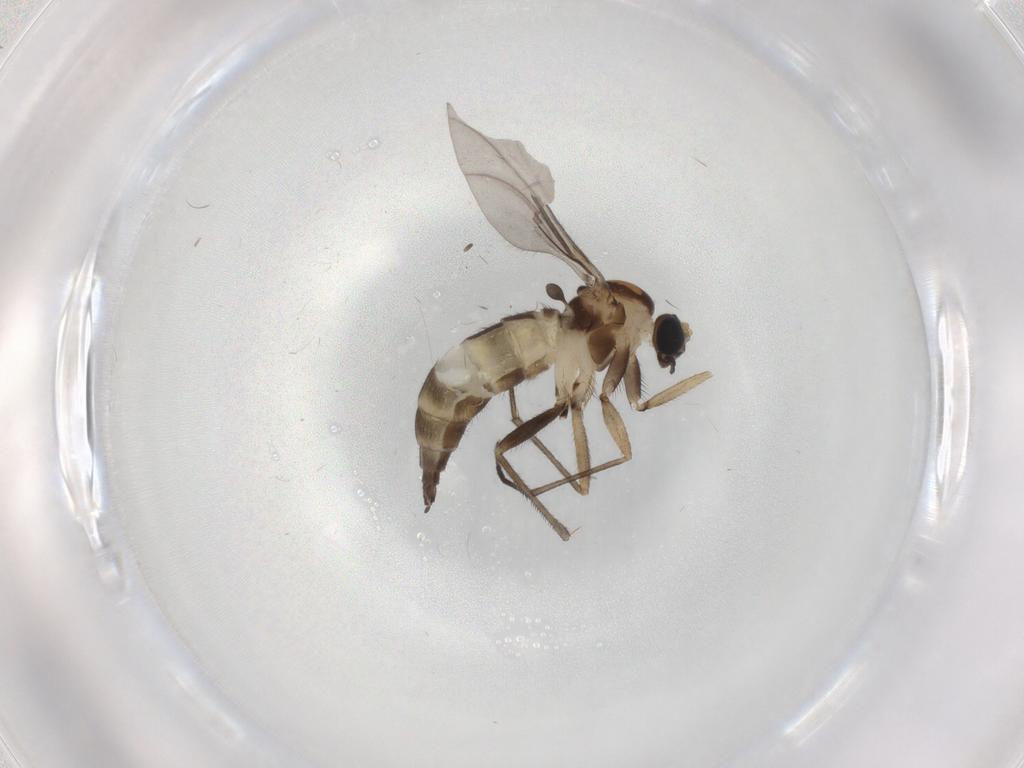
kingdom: Animalia
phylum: Arthropoda
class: Insecta
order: Diptera
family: Sciaridae
